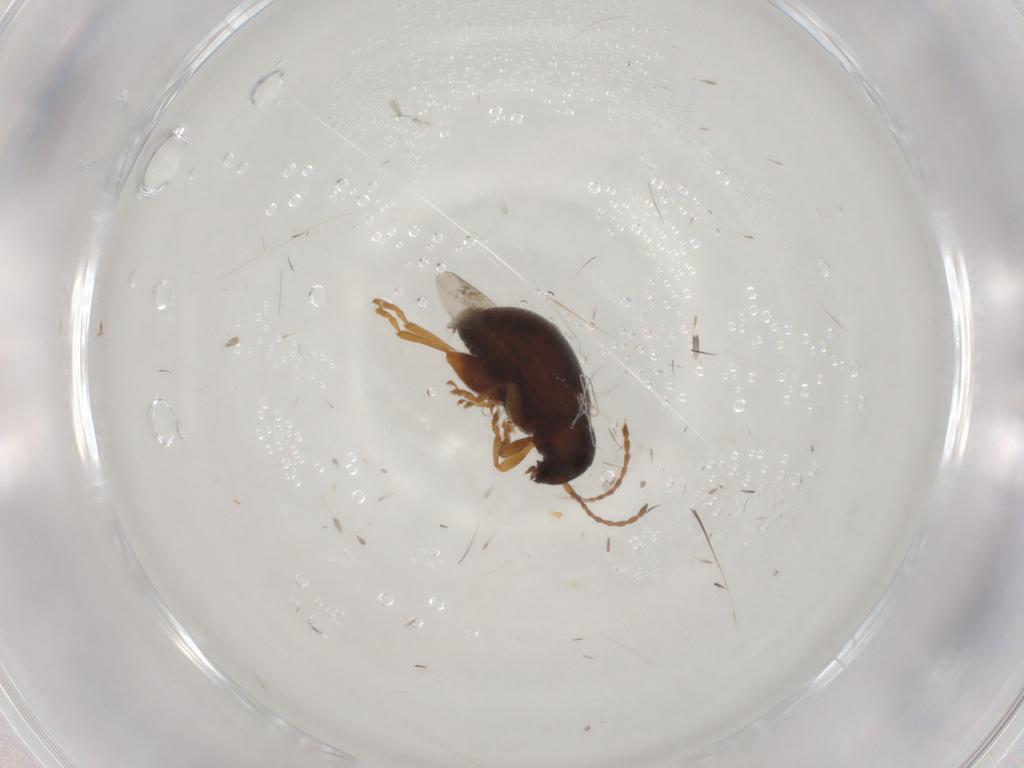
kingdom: Animalia
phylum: Arthropoda
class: Insecta
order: Coleoptera
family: Chrysomelidae
